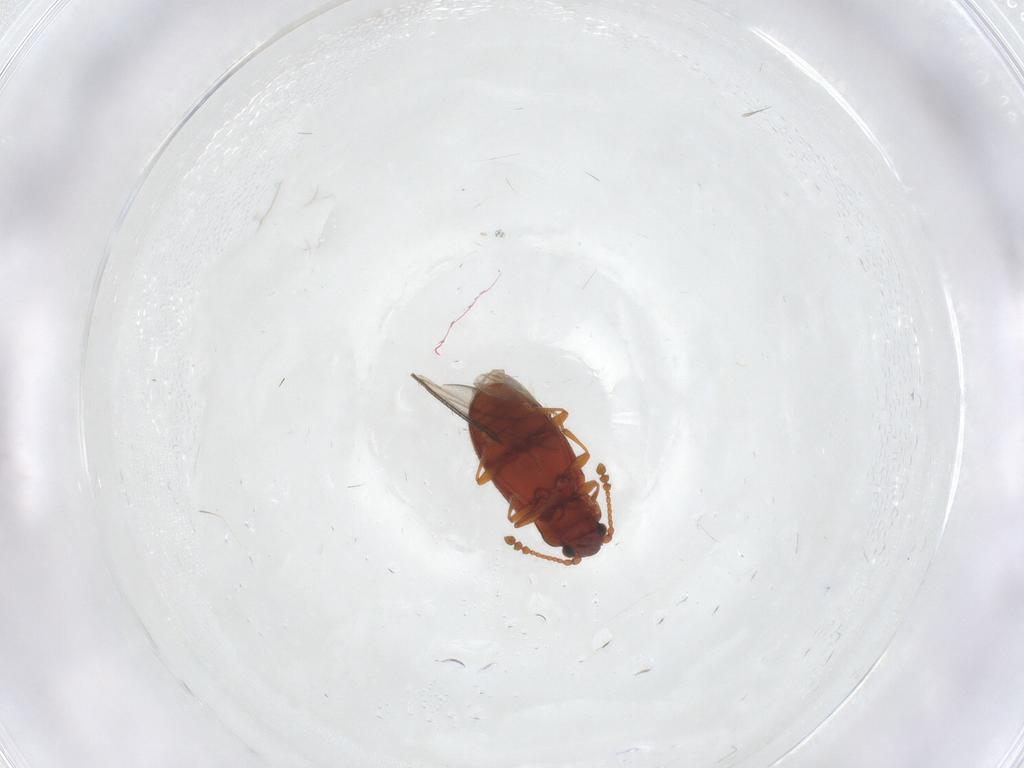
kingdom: Animalia
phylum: Arthropoda
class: Insecta
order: Coleoptera
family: Cryptophagidae
